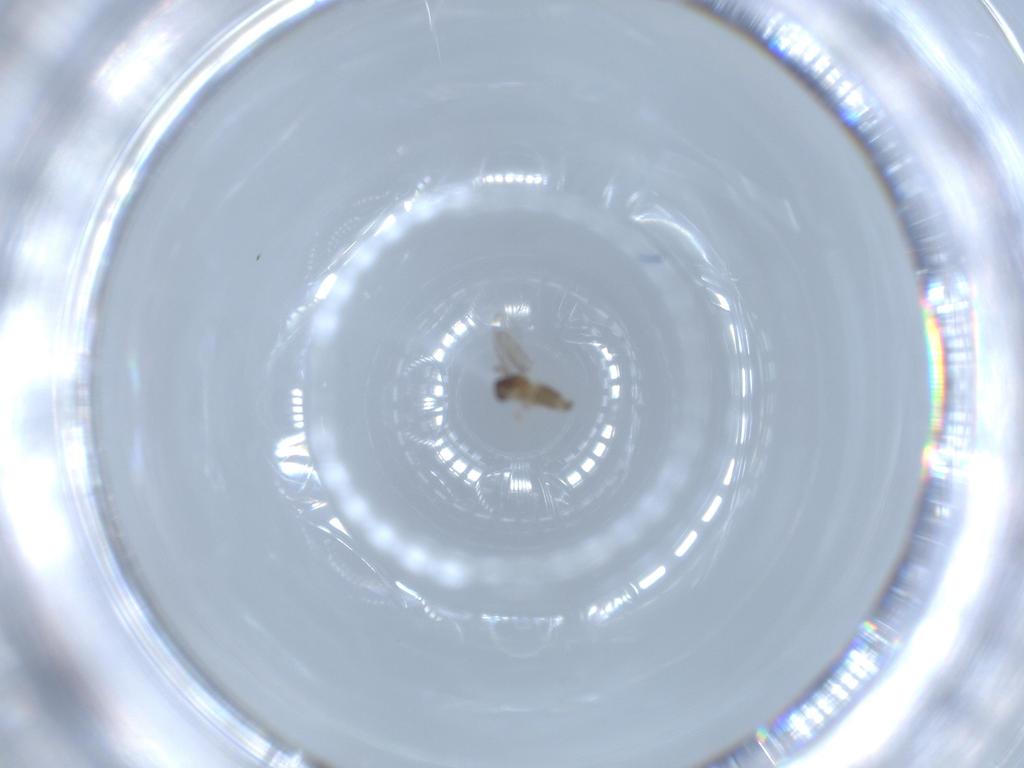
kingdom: Animalia
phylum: Arthropoda
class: Insecta
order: Diptera
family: Cecidomyiidae
